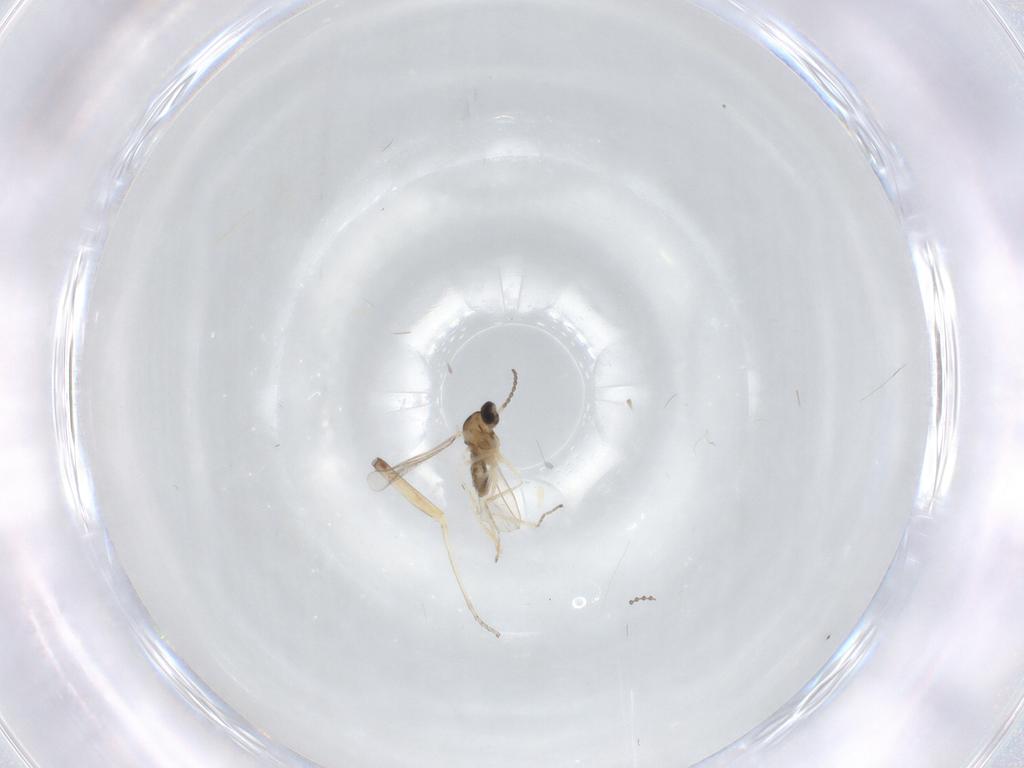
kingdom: Animalia
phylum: Arthropoda
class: Insecta
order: Diptera
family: Cecidomyiidae
